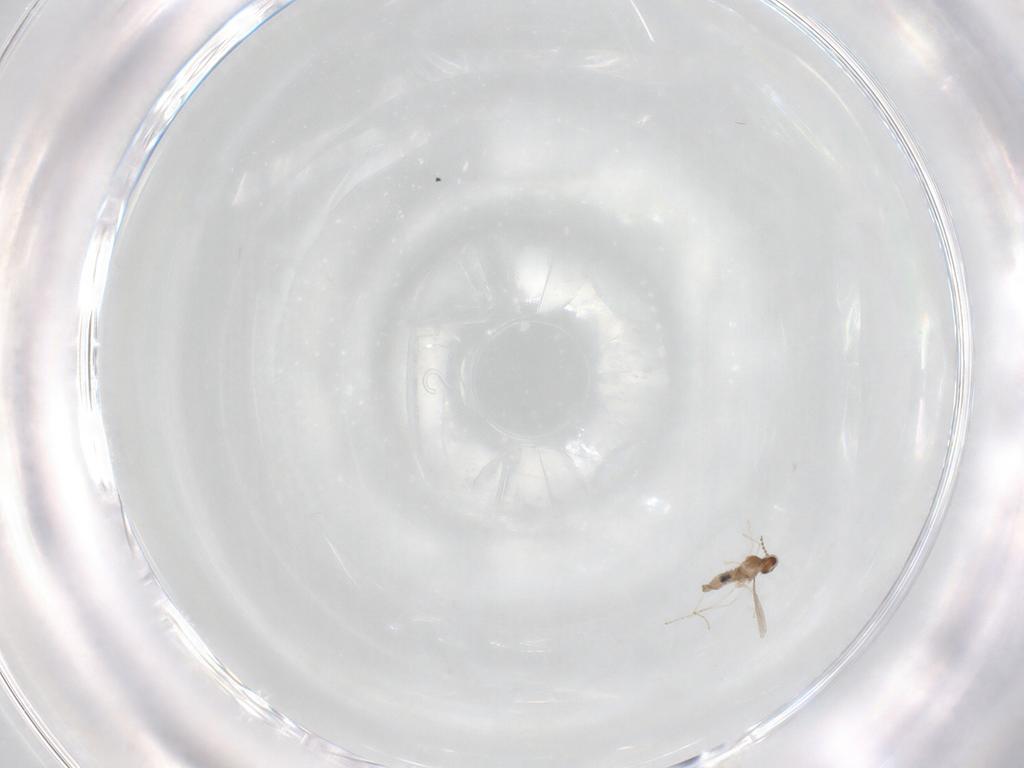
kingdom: Animalia
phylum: Arthropoda
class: Insecta
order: Diptera
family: Cecidomyiidae
